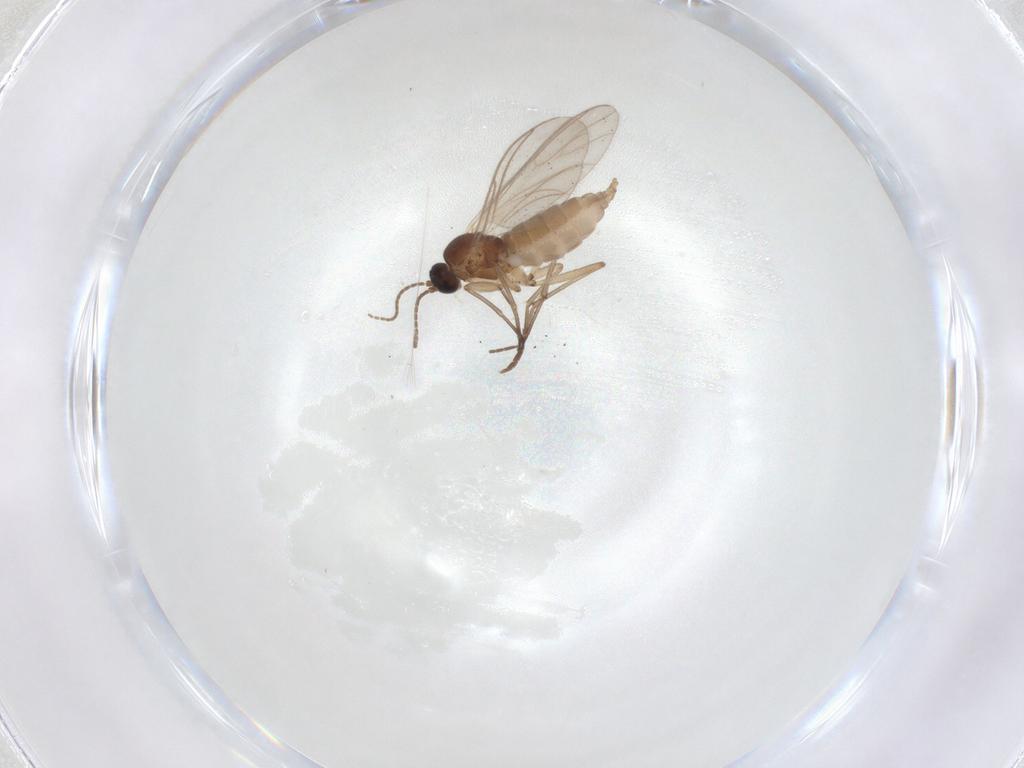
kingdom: Animalia
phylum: Arthropoda
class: Insecta
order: Diptera
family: Sciaridae
